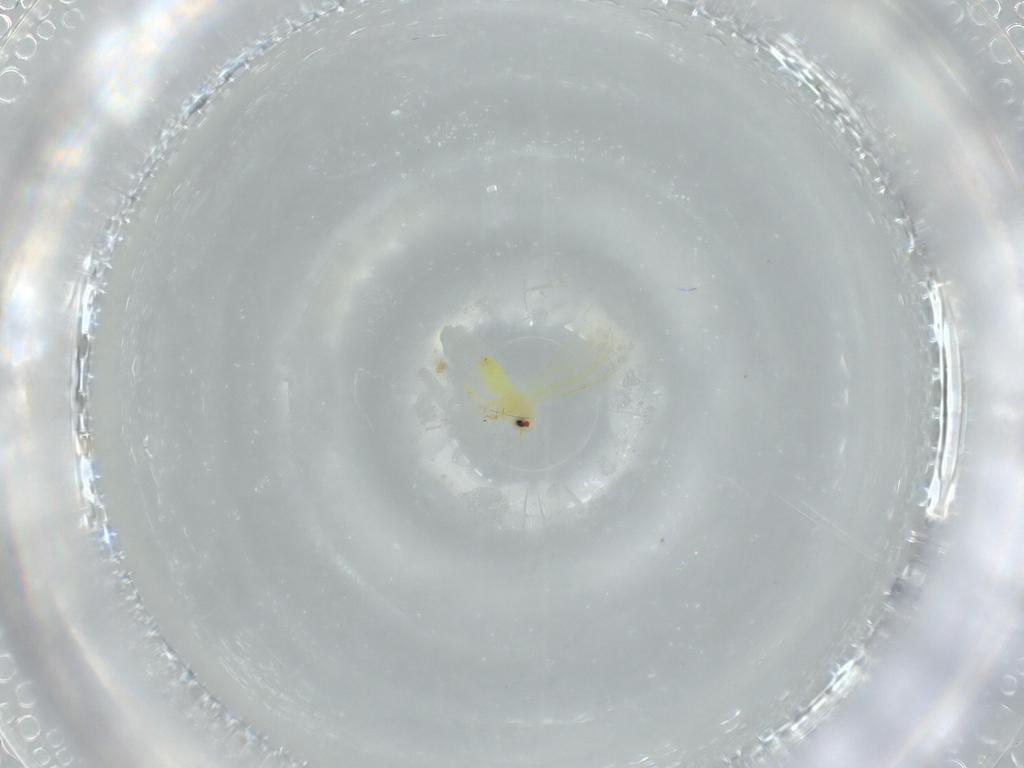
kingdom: Animalia
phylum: Arthropoda
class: Insecta
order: Hemiptera
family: Aleyrodidae
